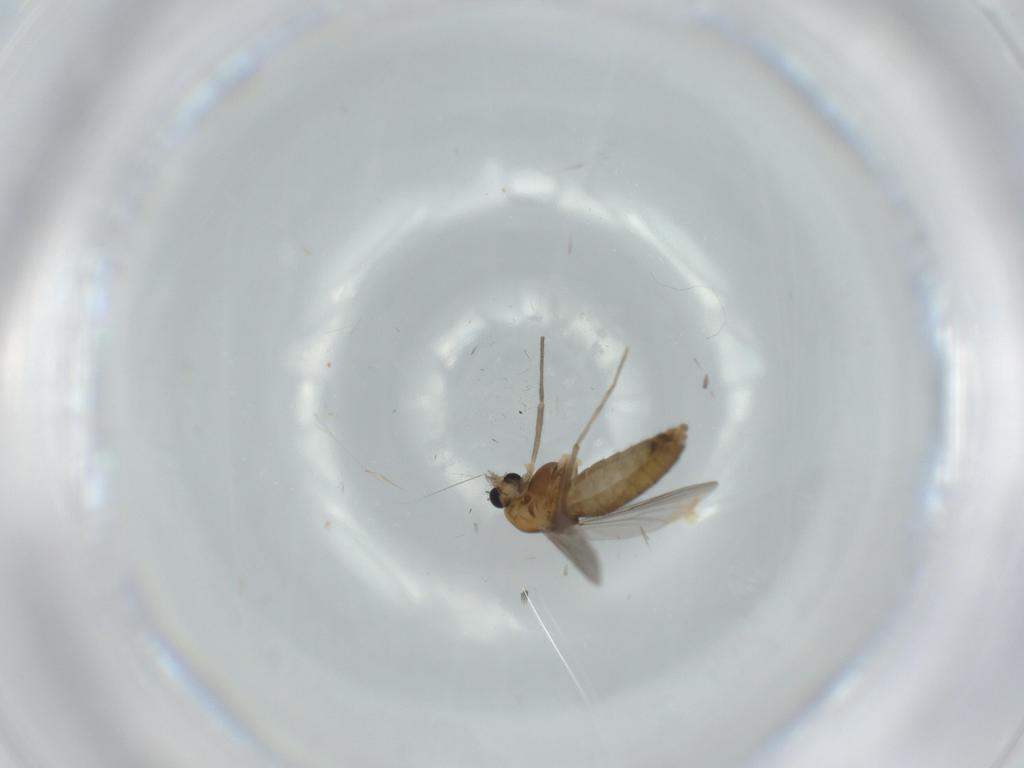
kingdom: Animalia
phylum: Arthropoda
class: Insecta
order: Diptera
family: Chironomidae
